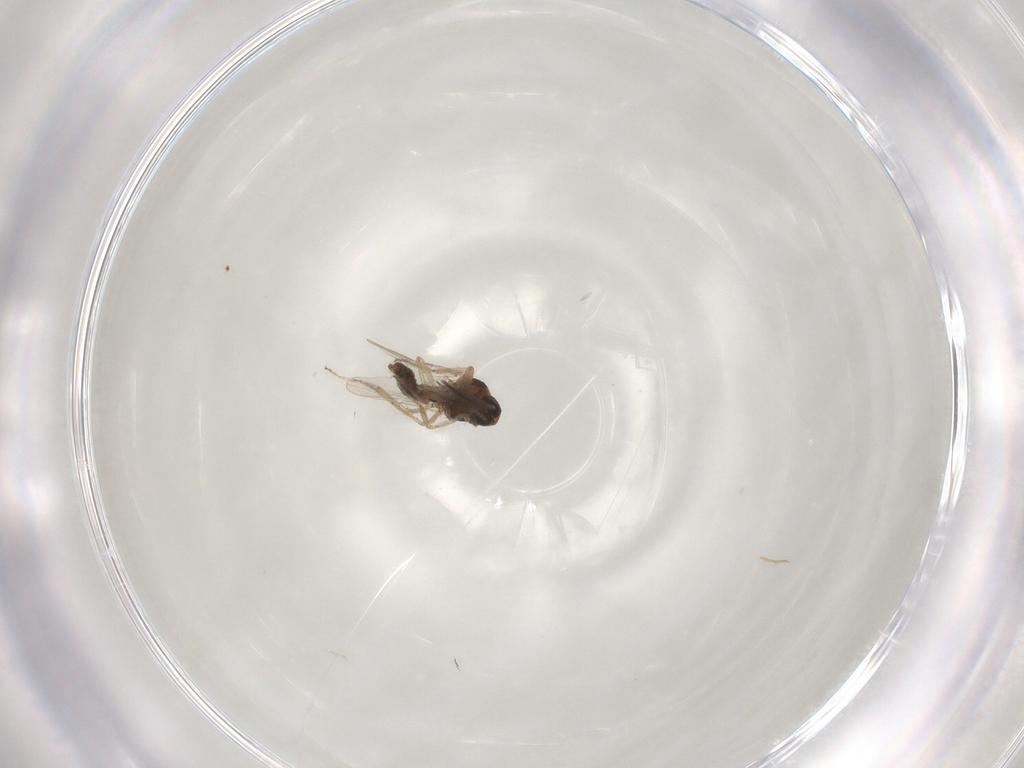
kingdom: Animalia
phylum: Arthropoda
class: Insecta
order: Diptera
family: Ceratopogonidae
